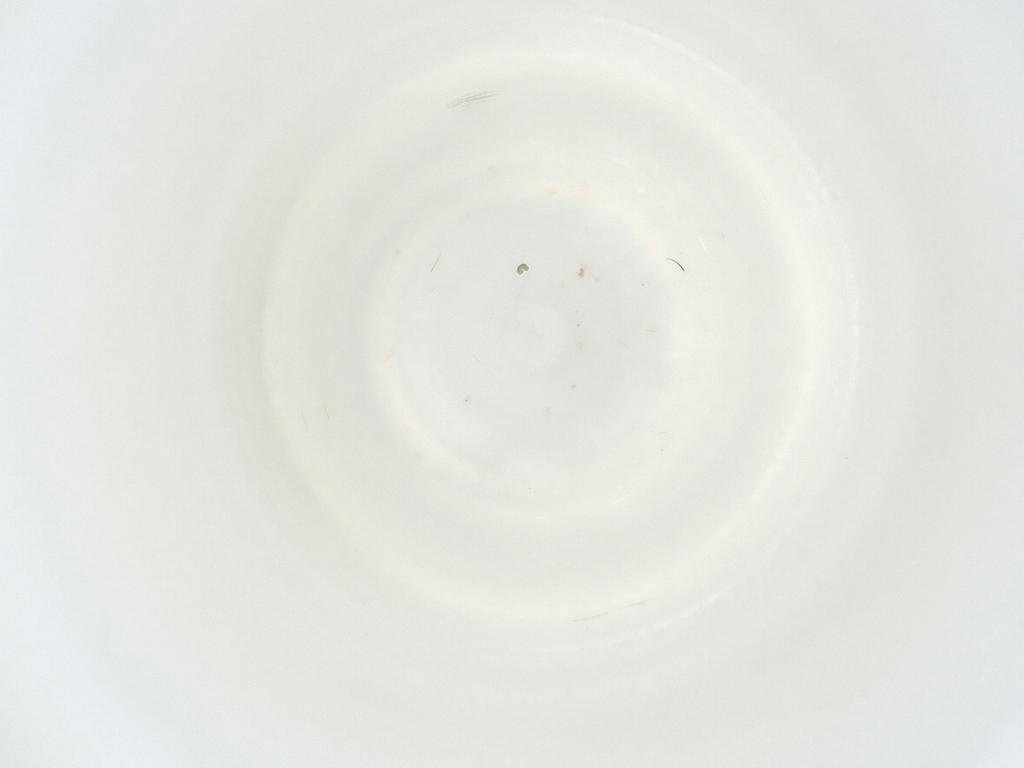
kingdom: Animalia
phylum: Arthropoda
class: Insecta
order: Hemiptera
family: Cicadellidae
